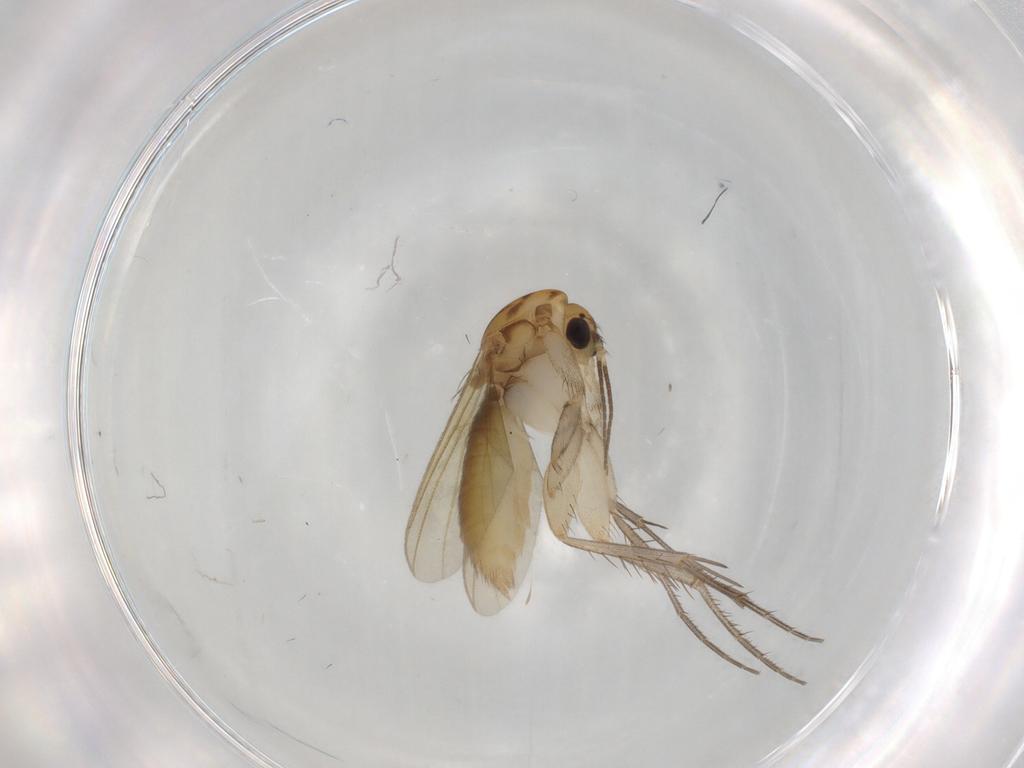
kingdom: Animalia
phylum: Arthropoda
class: Insecta
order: Diptera
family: Mycetophilidae
